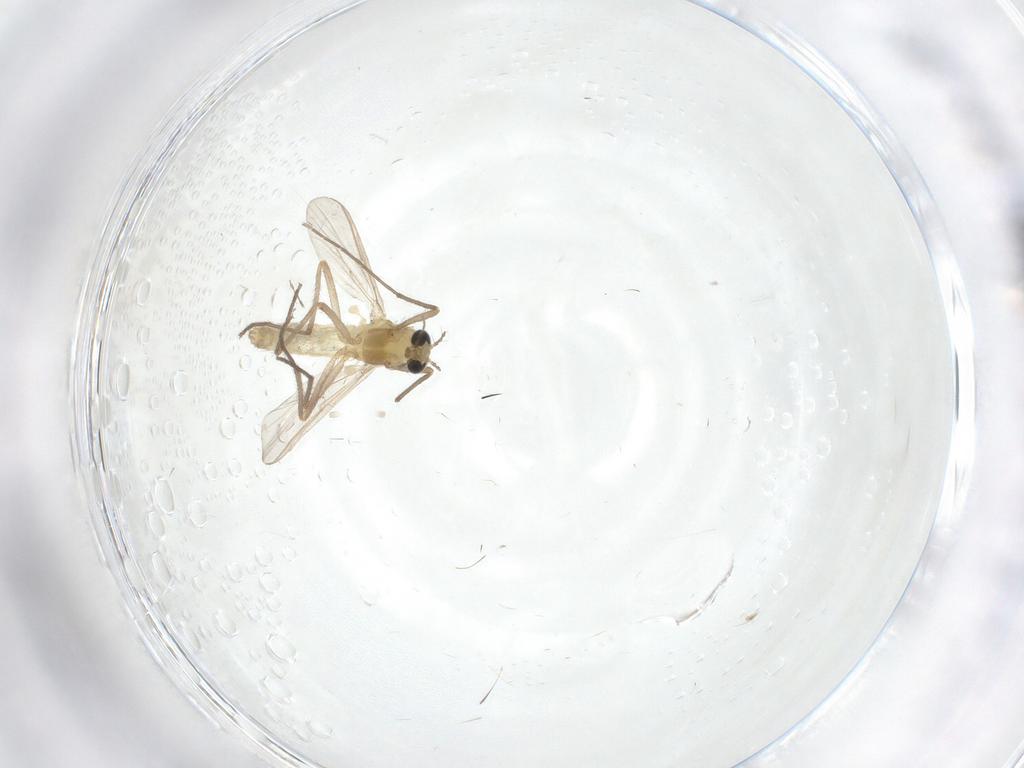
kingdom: Animalia
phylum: Arthropoda
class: Insecta
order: Diptera
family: Chironomidae
